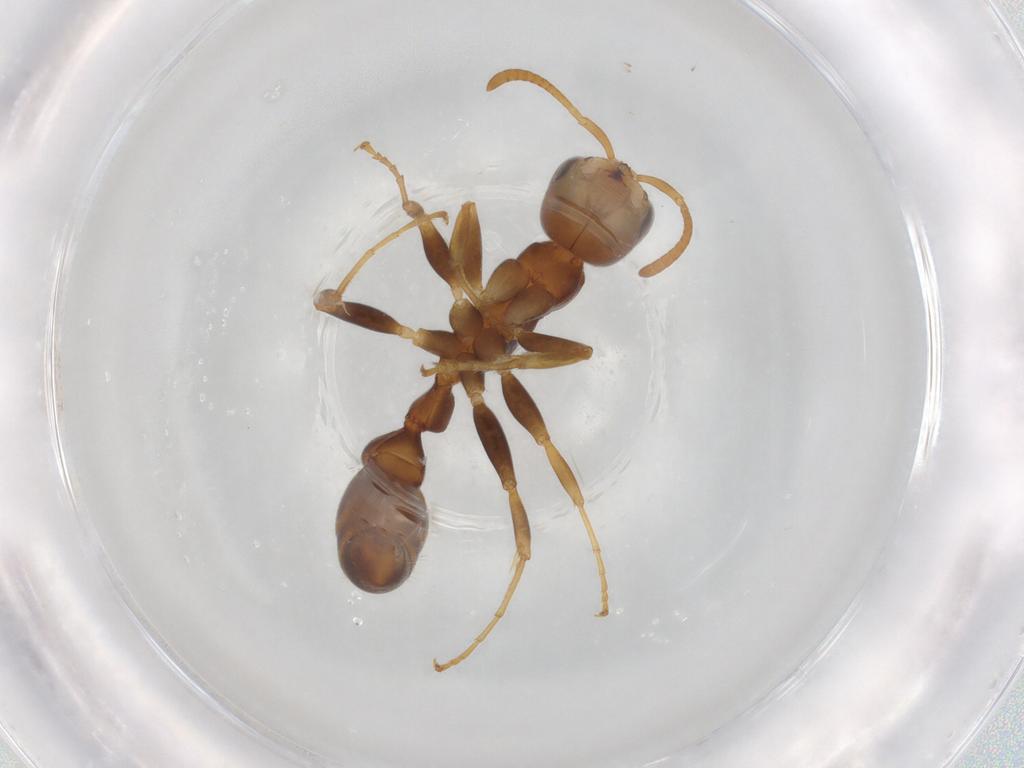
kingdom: Animalia
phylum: Arthropoda
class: Insecta
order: Hymenoptera
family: Formicidae
